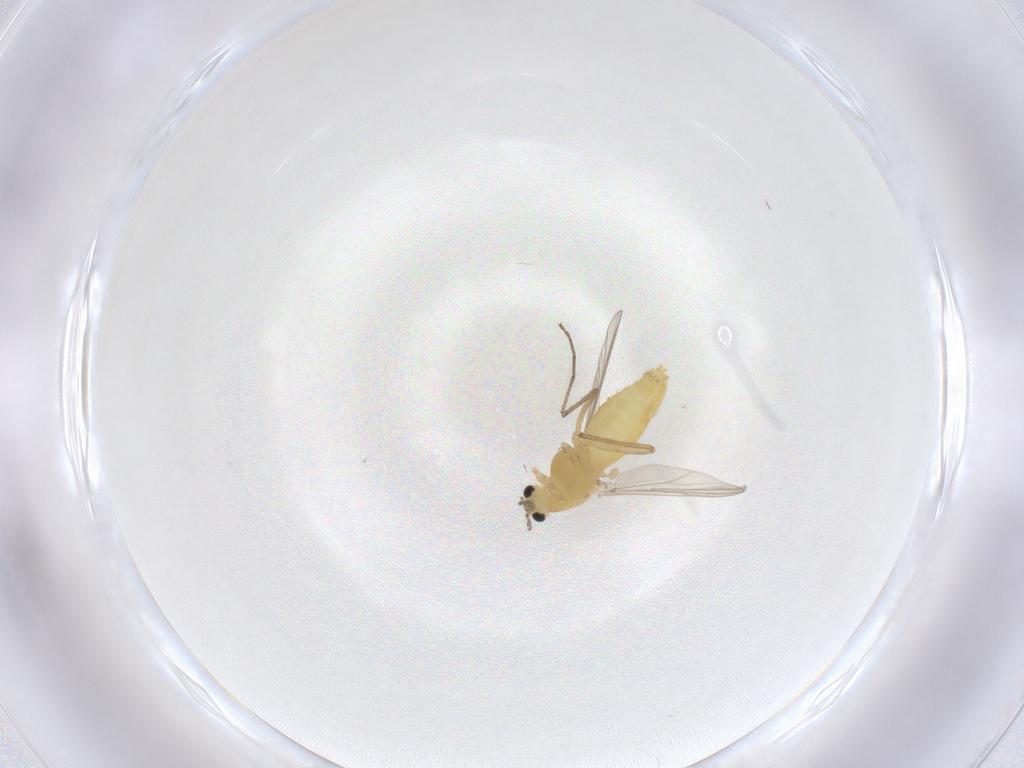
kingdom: Animalia
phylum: Arthropoda
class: Insecta
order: Diptera
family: Chironomidae
